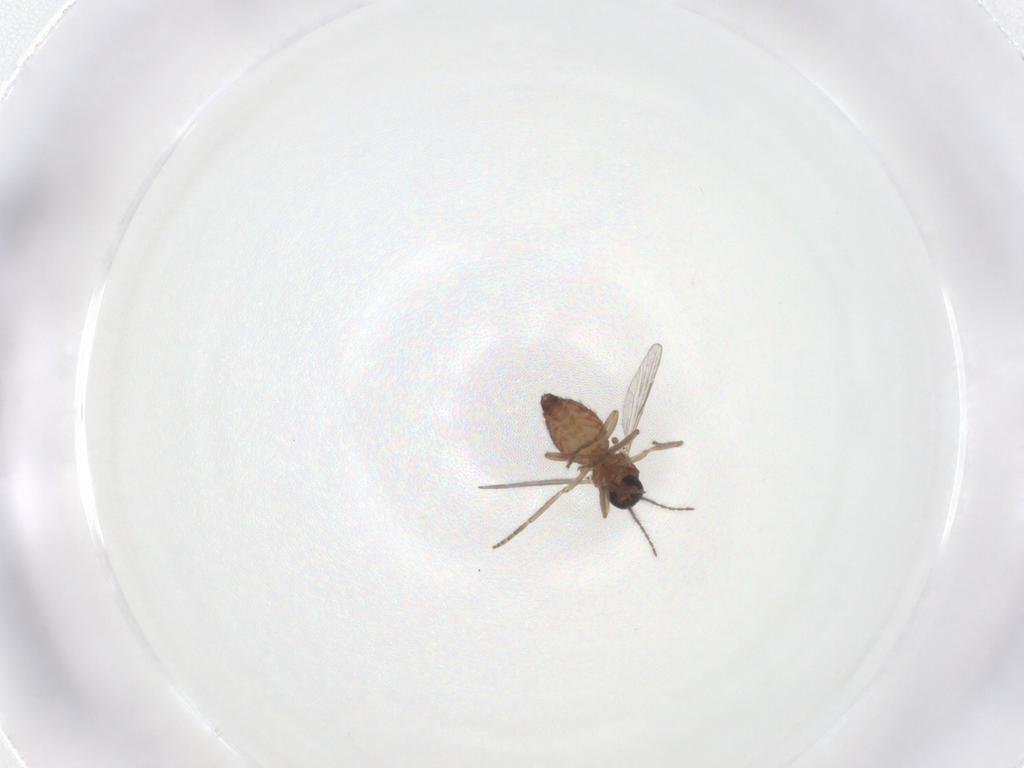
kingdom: Animalia
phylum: Arthropoda
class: Insecta
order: Diptera
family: Ceratopogonidae
